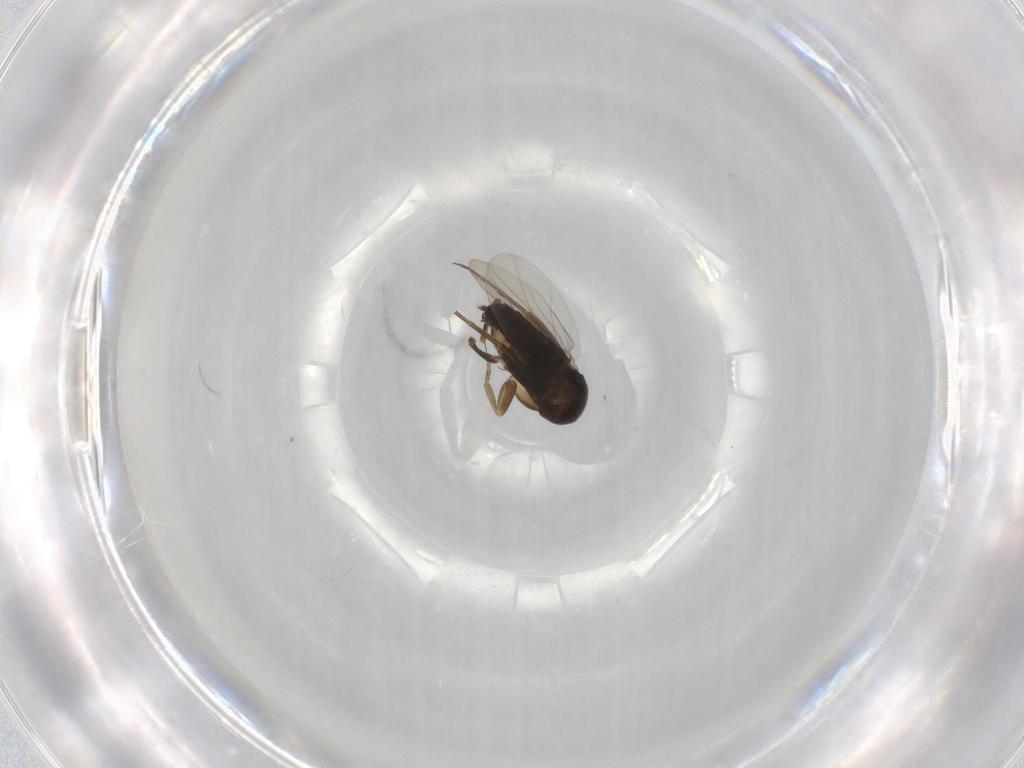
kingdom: Animalia
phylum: Arthropoda
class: Insecta
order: Diptera
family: Phoridae
